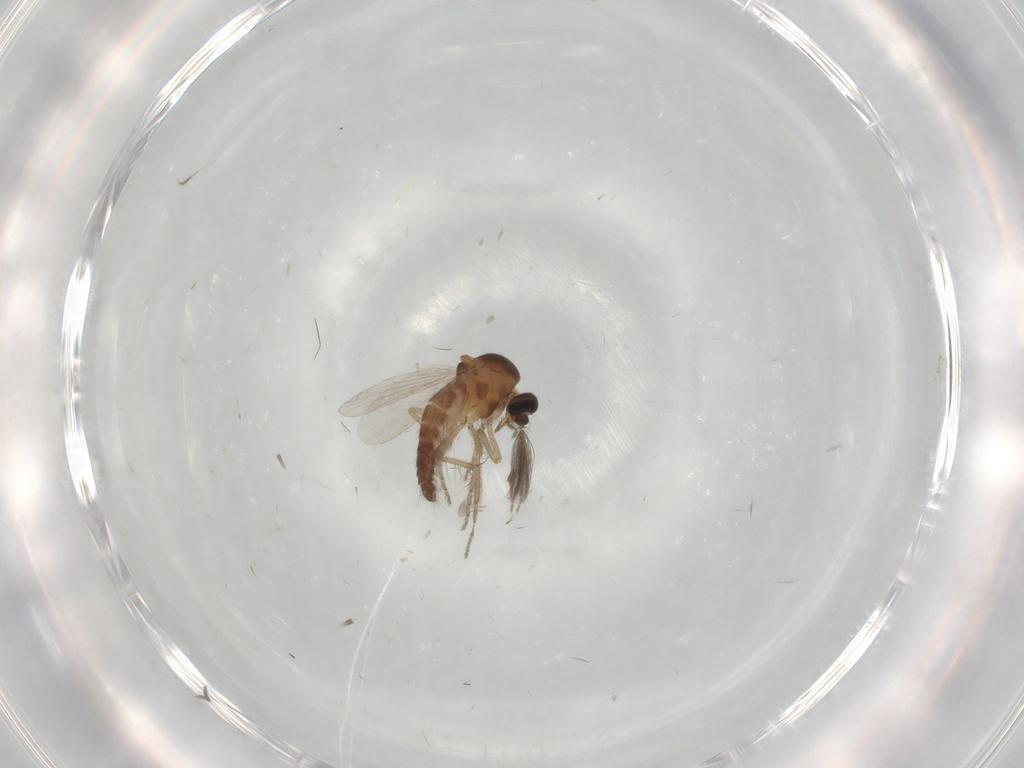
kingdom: Animalia
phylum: Arthropoda
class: Insecta
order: Diptera
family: Ceratopogonidae
